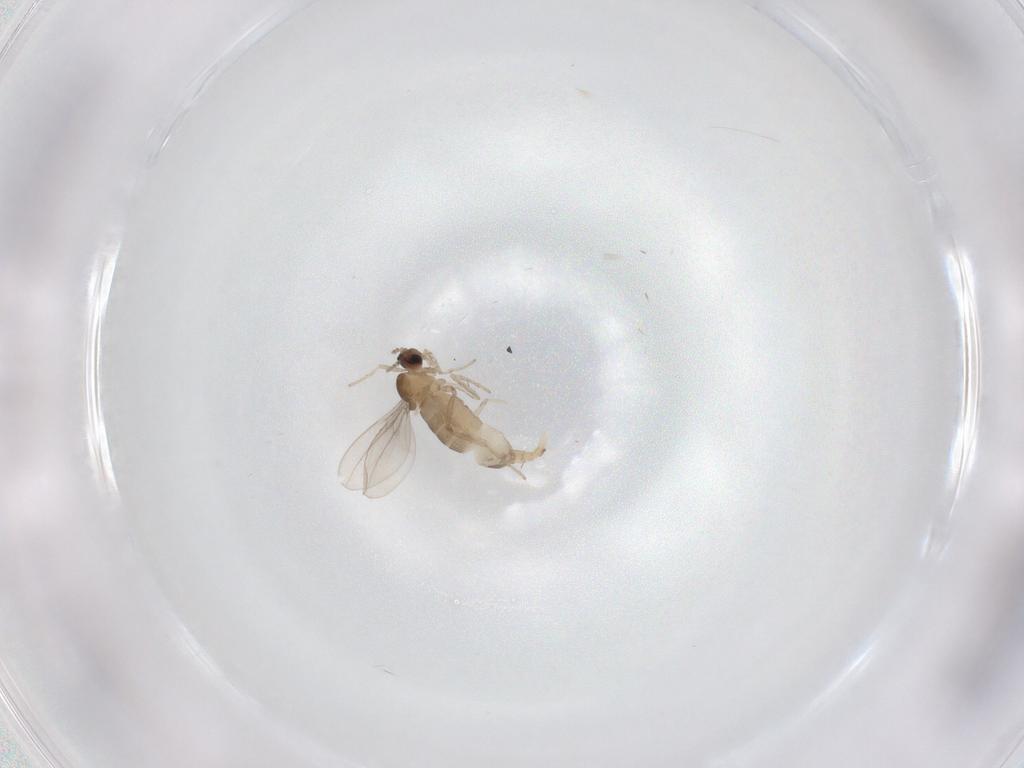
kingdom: Animalia
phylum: Arthropoda
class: Insecta
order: Diptera
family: Cecidomyiidae
